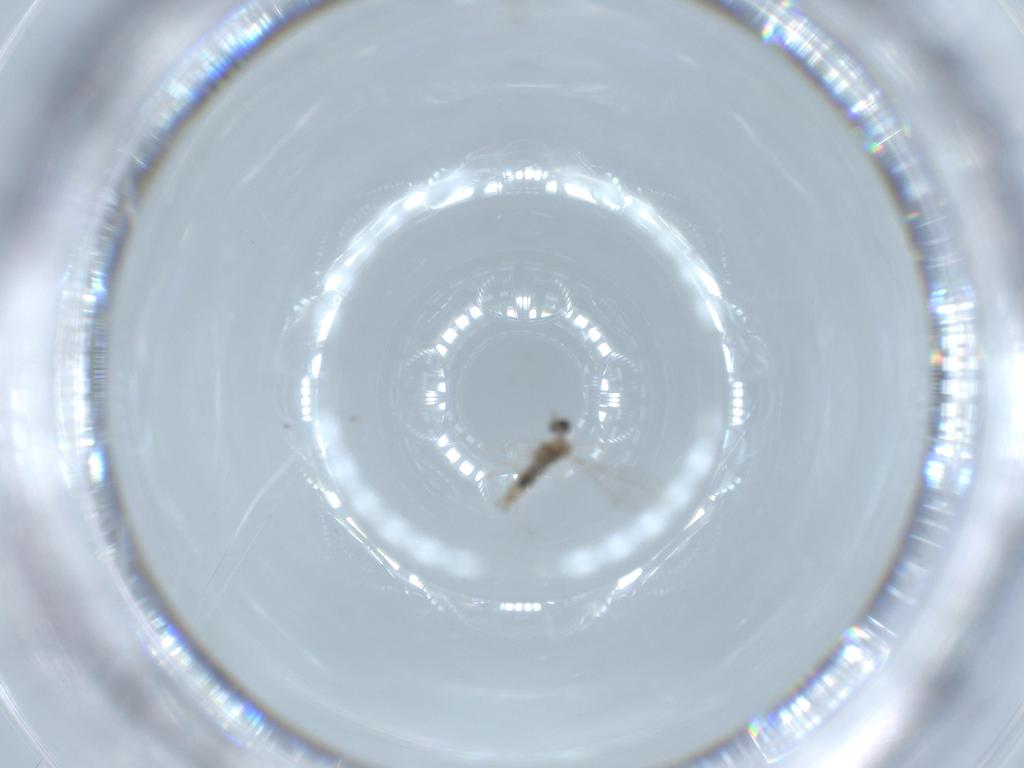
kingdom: Animalia
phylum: Arthropoda
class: Insecta
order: Diptera
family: Cecidomyiidae
